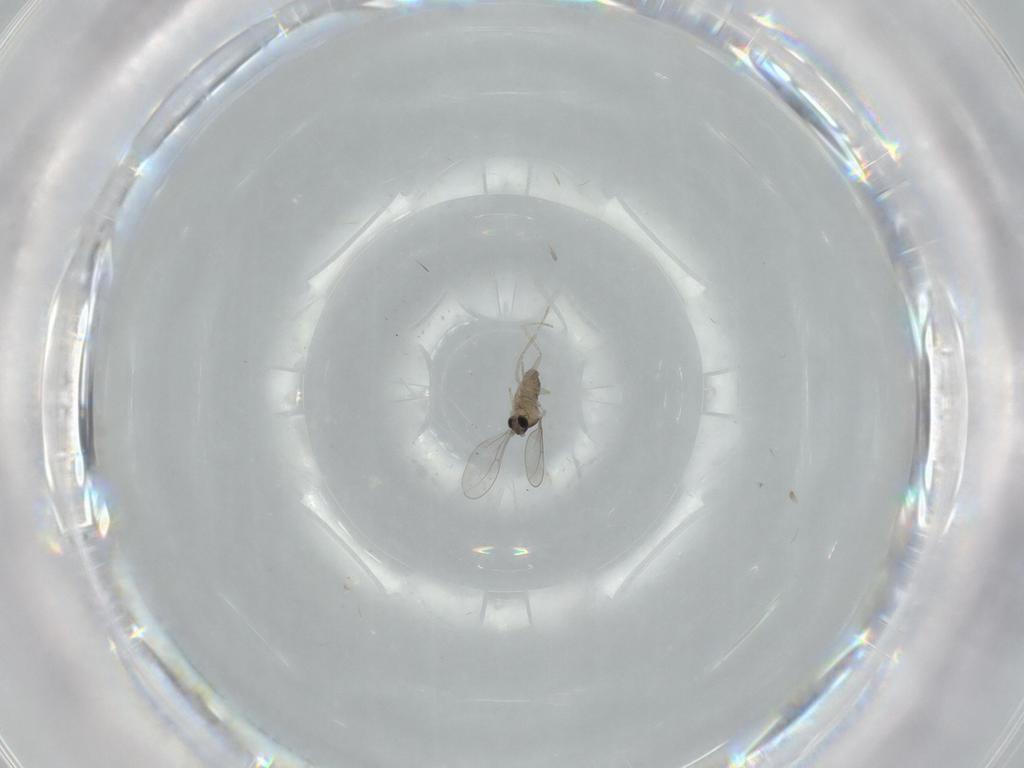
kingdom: Animalia
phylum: Arthropoda
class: Insecta
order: Diptera
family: Cecidomyiidae
